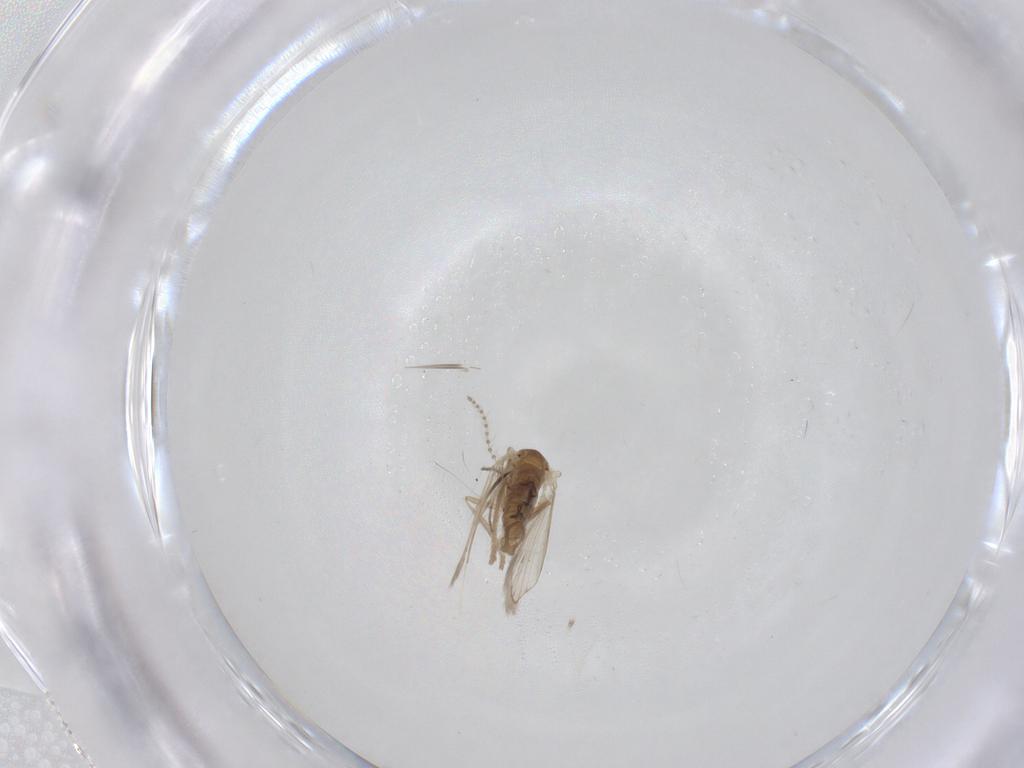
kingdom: Animalia
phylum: Arthropoda
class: Insecta
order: Diptera
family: Psychodidae
